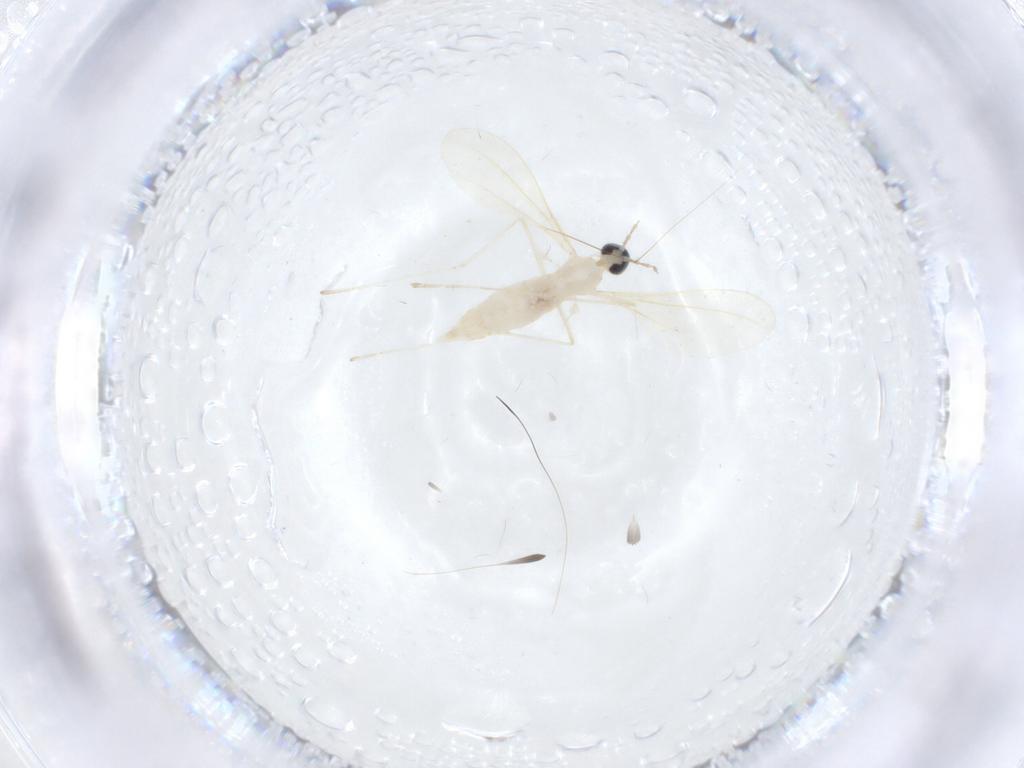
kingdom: Animalia
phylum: Arthropoda
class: Insecta
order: Diptera
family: Cecidomyiidae
